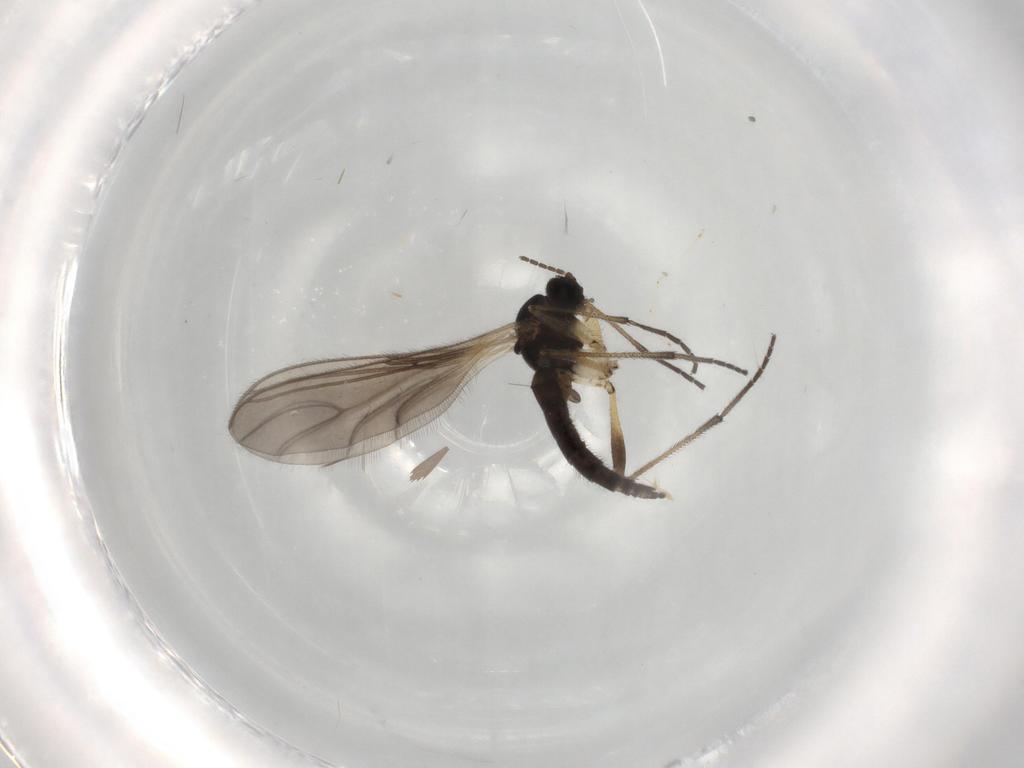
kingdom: Animalia
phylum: Arthropoda
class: Insecta
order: Diptera
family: Sciaridae
